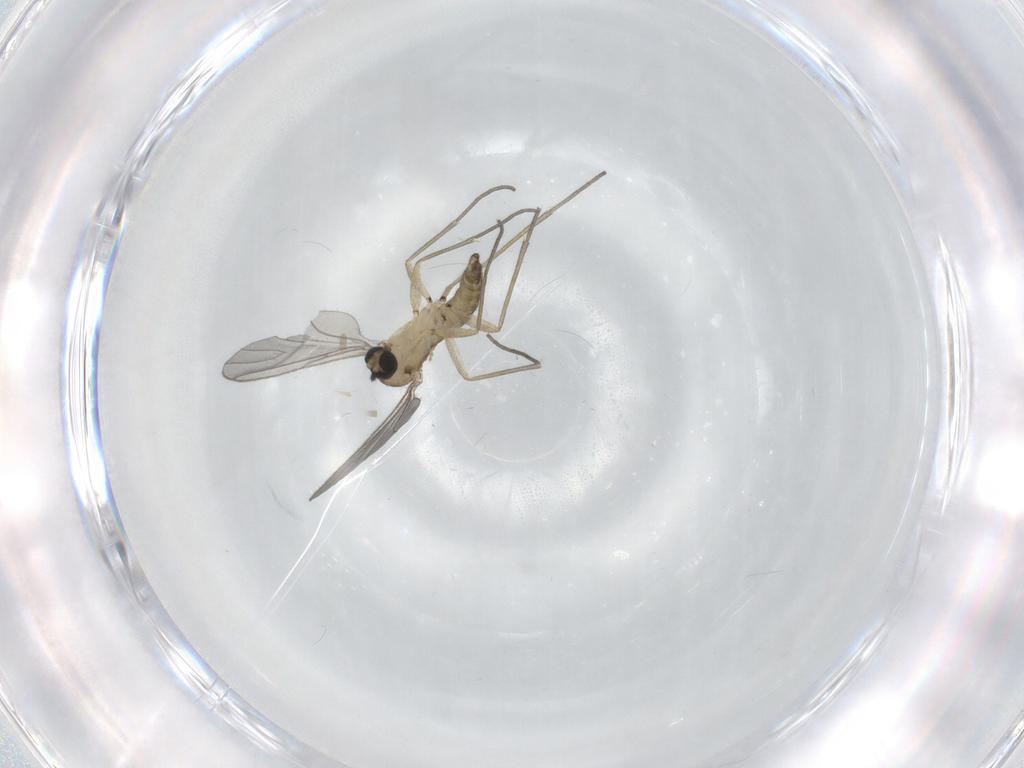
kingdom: Animalia
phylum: Arthropoda
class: Insecta
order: Diptera
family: Sciaridae
